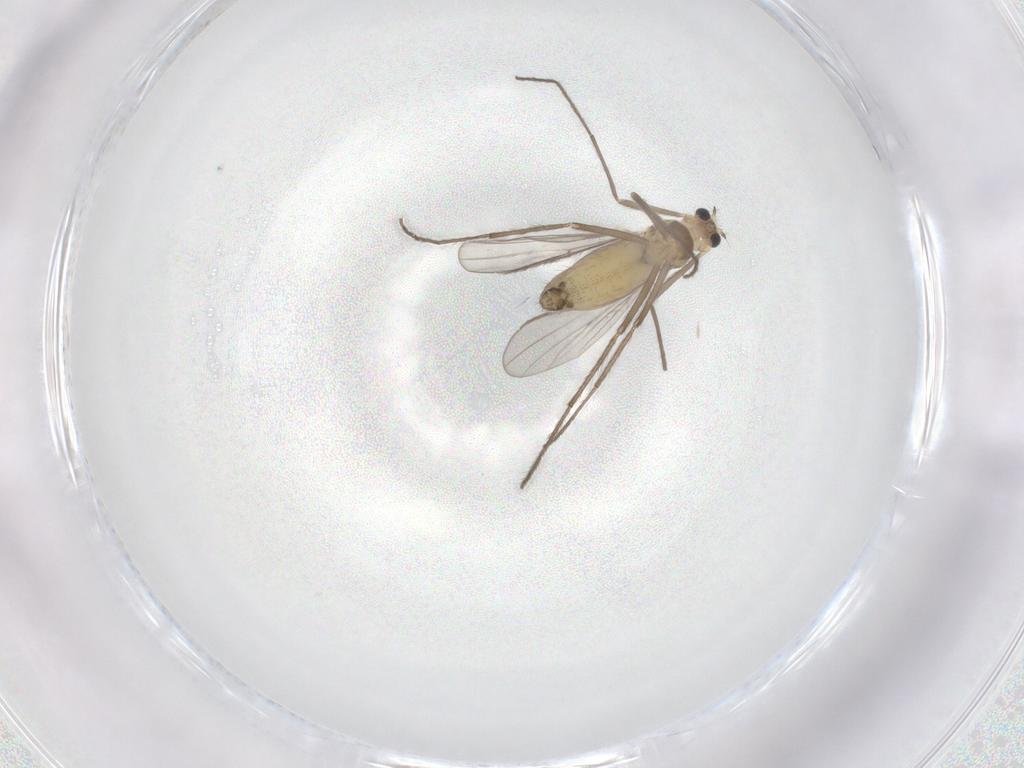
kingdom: Animalia
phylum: Arthropoda
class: Insecta
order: Diptera
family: Chironomidae
